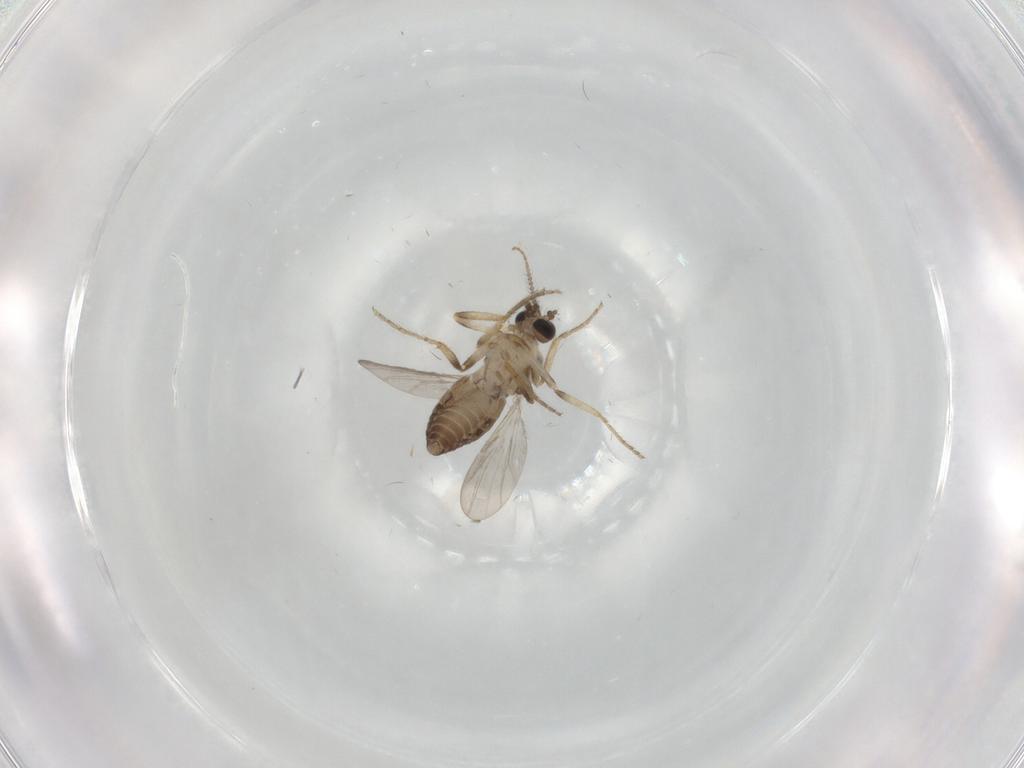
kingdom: Animalia
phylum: Arthropoda
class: Insecta
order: Diptera
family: Ceratopogonidae
